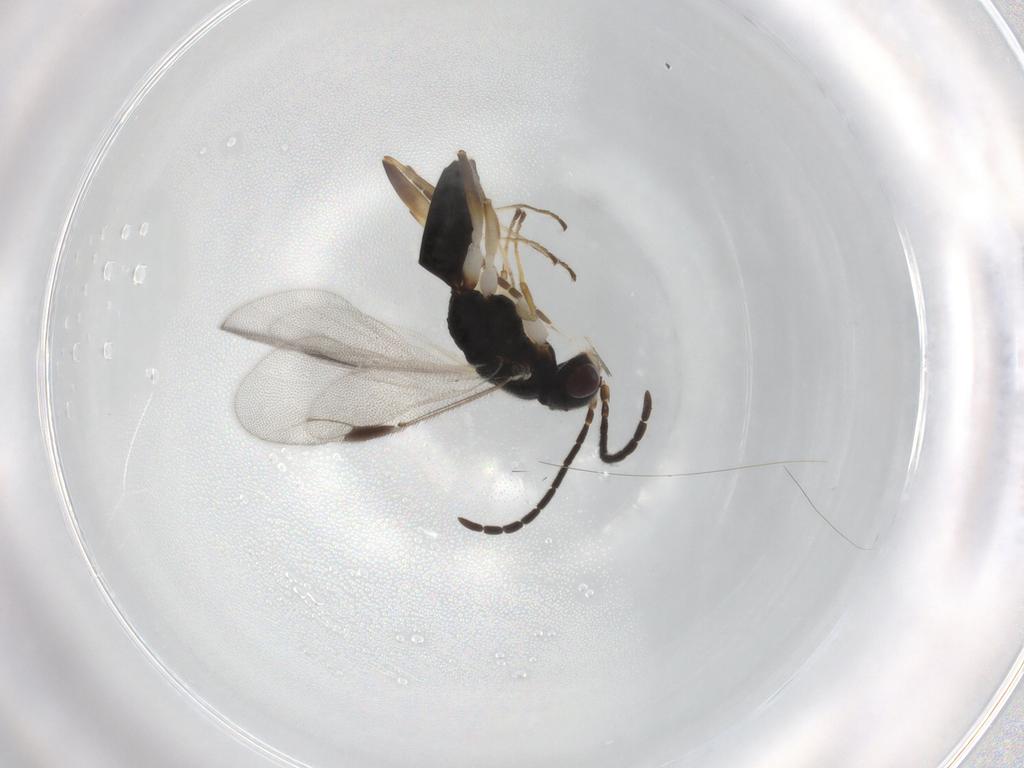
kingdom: Animalia
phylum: Arthropoda
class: Insecta
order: Hymenoptera
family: Dryinidae
